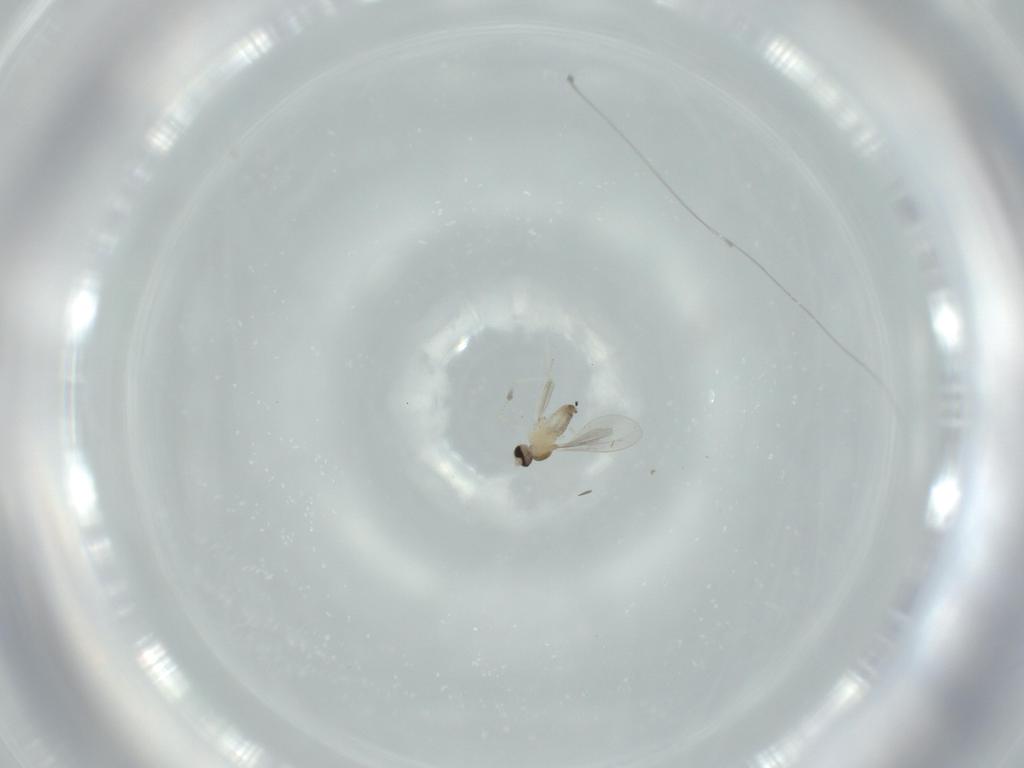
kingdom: Animalia
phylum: Arthropoda
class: Insecta
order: Diptera
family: Cecidomyiidae
